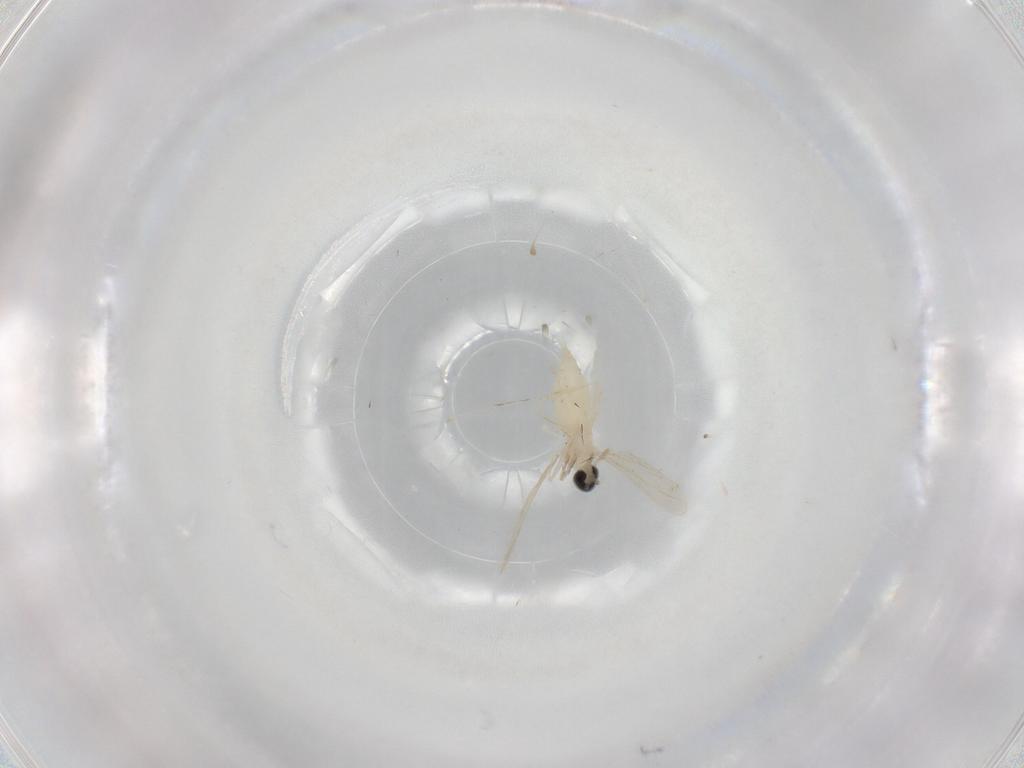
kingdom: Animalia
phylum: Arthropoda
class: Insecta
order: Diptera
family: Cecidomyiidae
